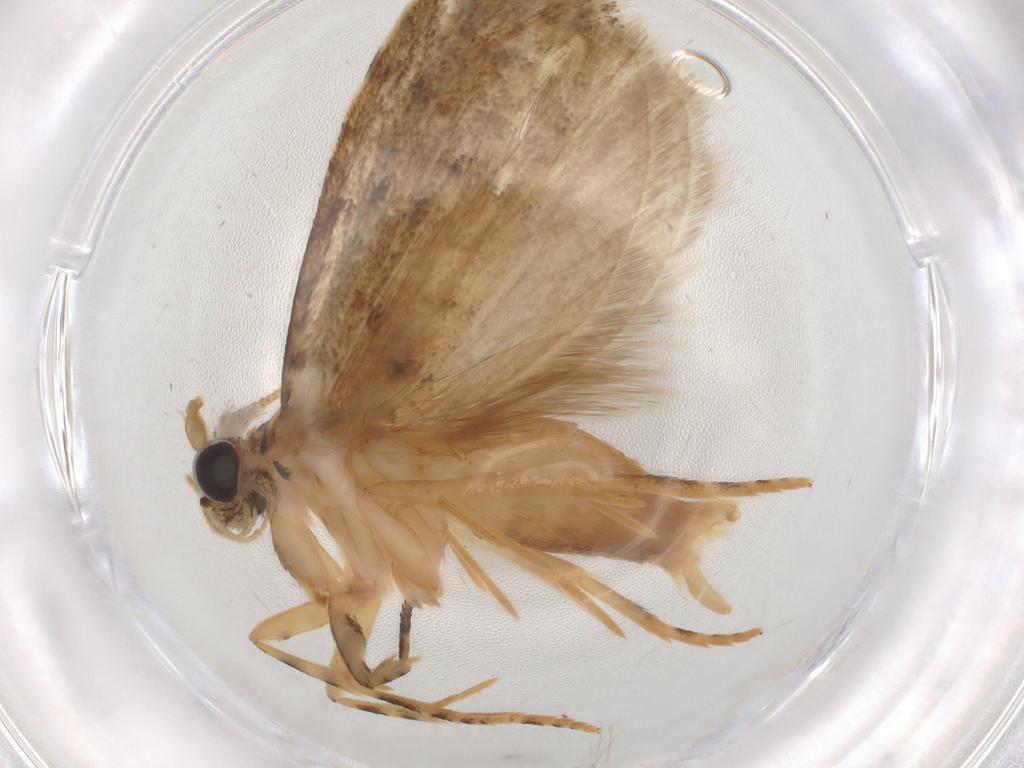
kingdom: Animalia
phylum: Arthropoda
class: Insecta
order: Lepidoptera
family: Gelechiidae
